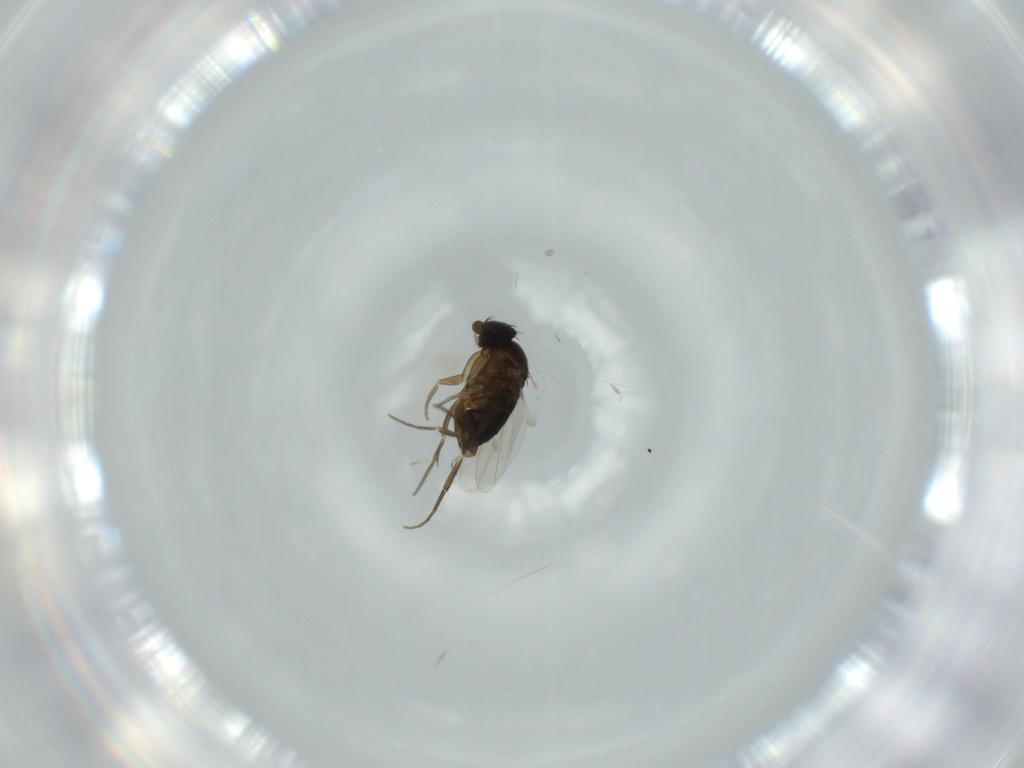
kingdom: Animalia
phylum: Arthropoda
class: Insecta
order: Diptera
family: Phoridae
